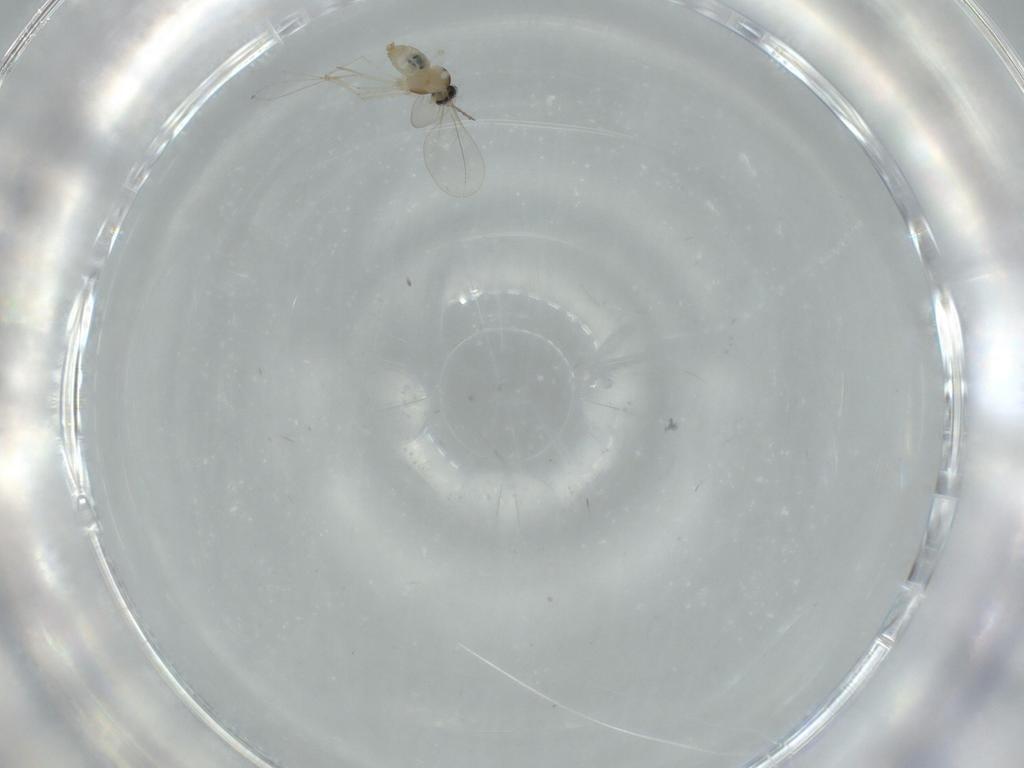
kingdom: Animalia
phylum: Arthropoda
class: Insecta
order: Diptera
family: Cecidomyiidae
